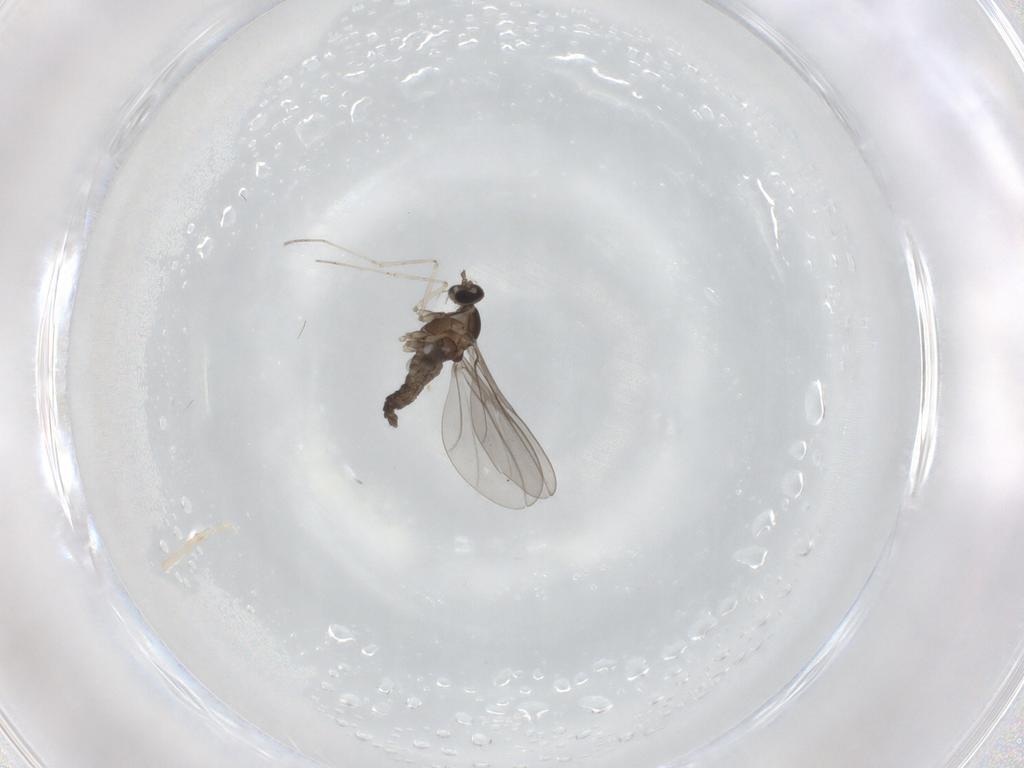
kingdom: Animalia
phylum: Arthropoda
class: Insecta
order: Diptera
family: Cecidomyiidae
